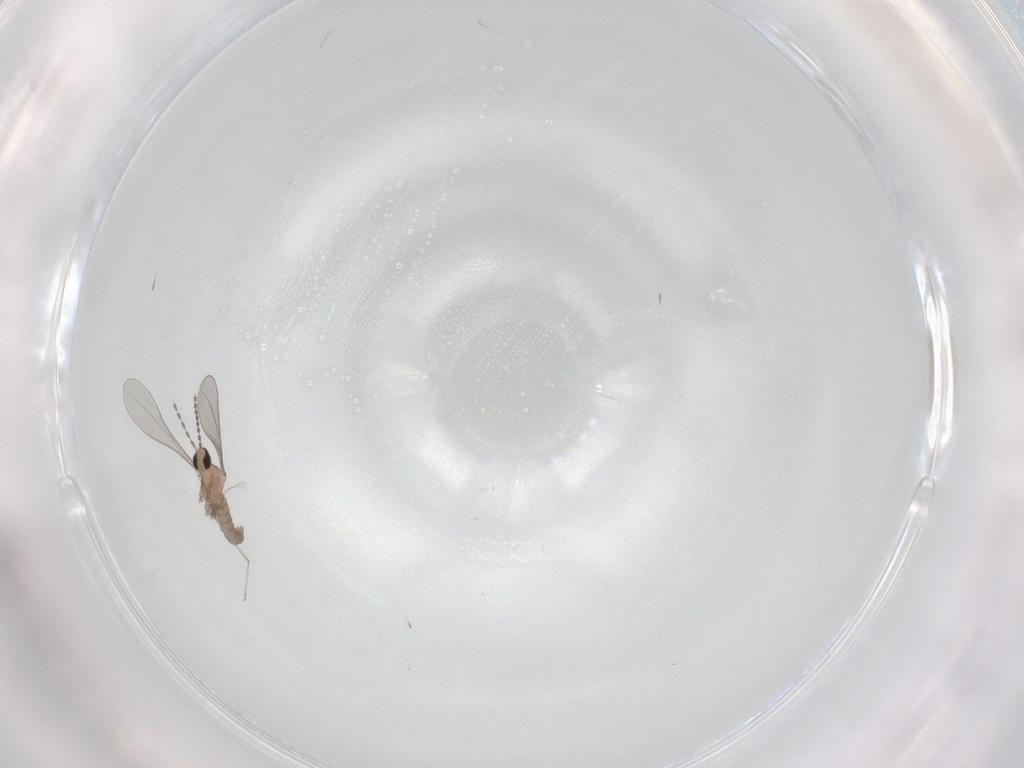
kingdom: Animalia
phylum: Arthropoda
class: Insecta
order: Diptera
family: Cecidomyiidae
